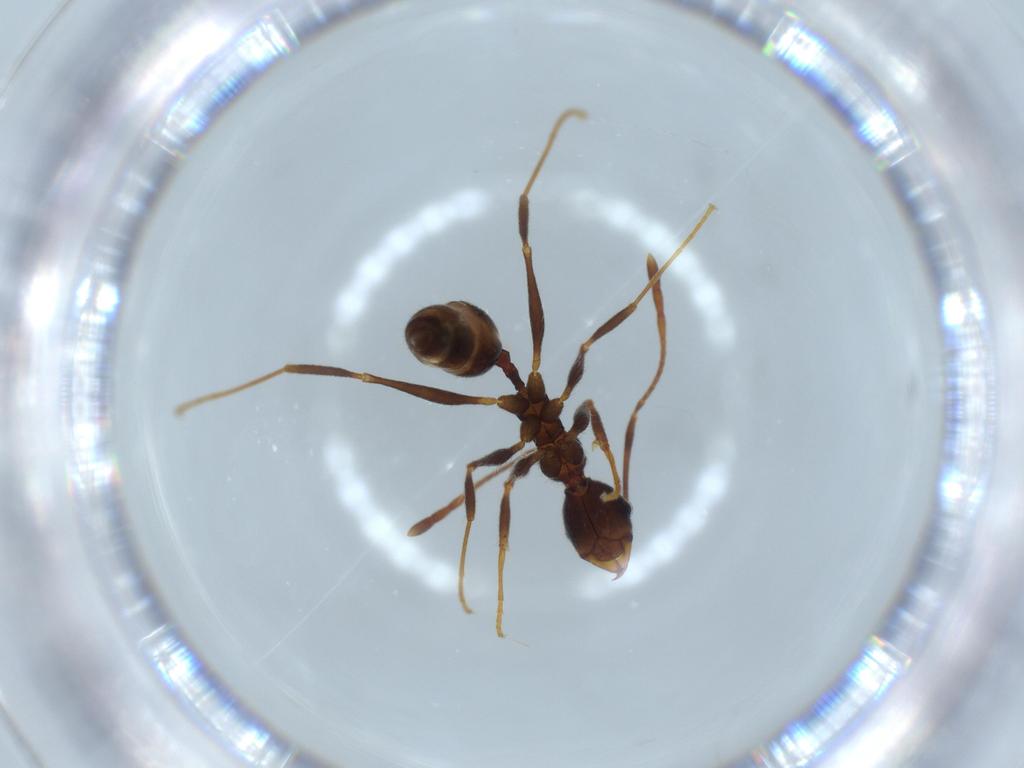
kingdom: Animalia
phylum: Arthropoda
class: Insecta
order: Hymenoptera
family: Formicidae
